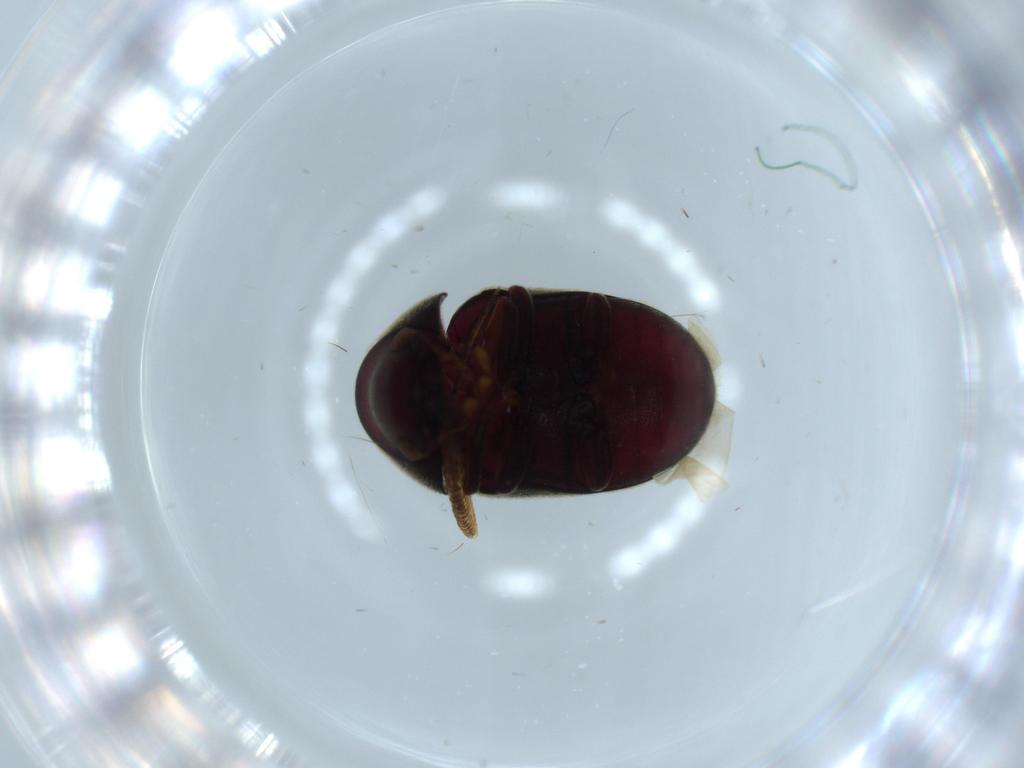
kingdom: Animalia
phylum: Arthropoda
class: Insecta
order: Coleoptera
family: Ptinidae
